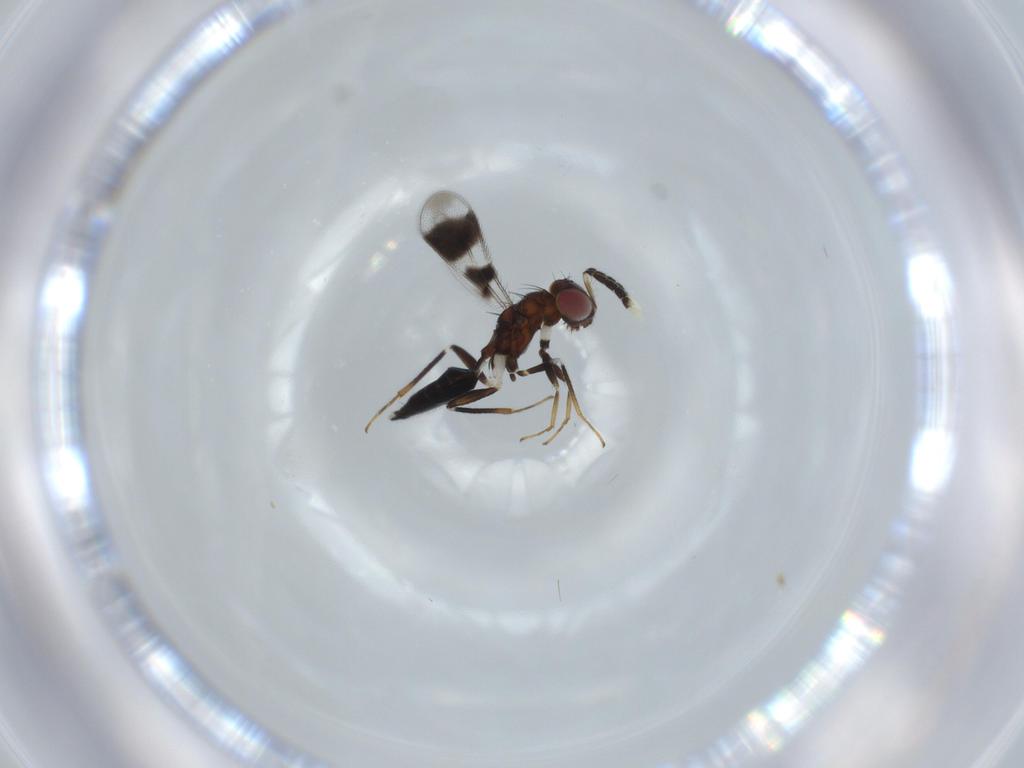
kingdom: Animalia
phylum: Arthropoda
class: Insecta
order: Hymenoptera
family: Eulophidae
